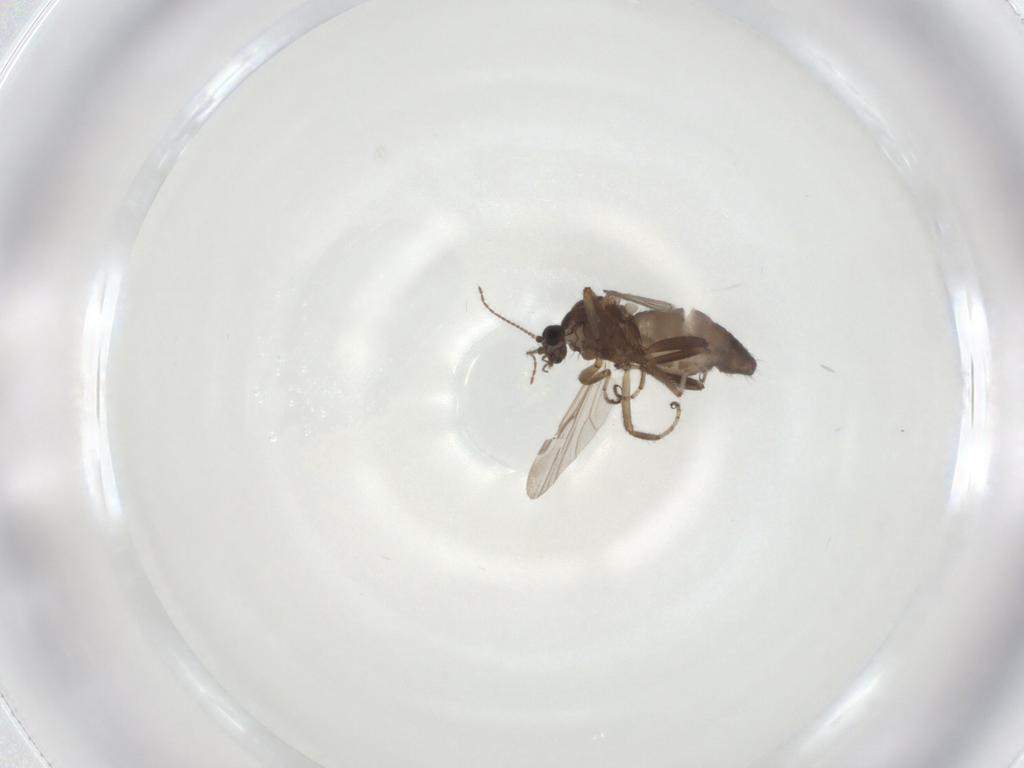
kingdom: Animalia
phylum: Arthropoda
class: Insecta
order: Diptera
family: Ceratopogonidae
